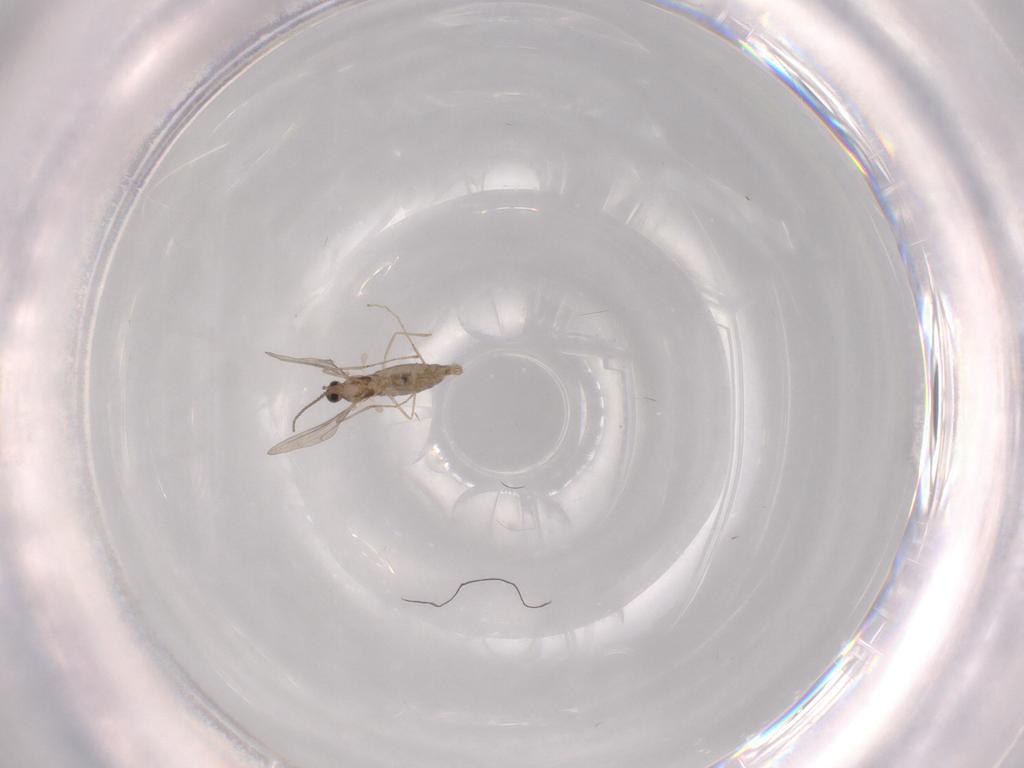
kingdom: Animalia
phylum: Arthropoda
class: Insecta
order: Diptera
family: Chironomidae
